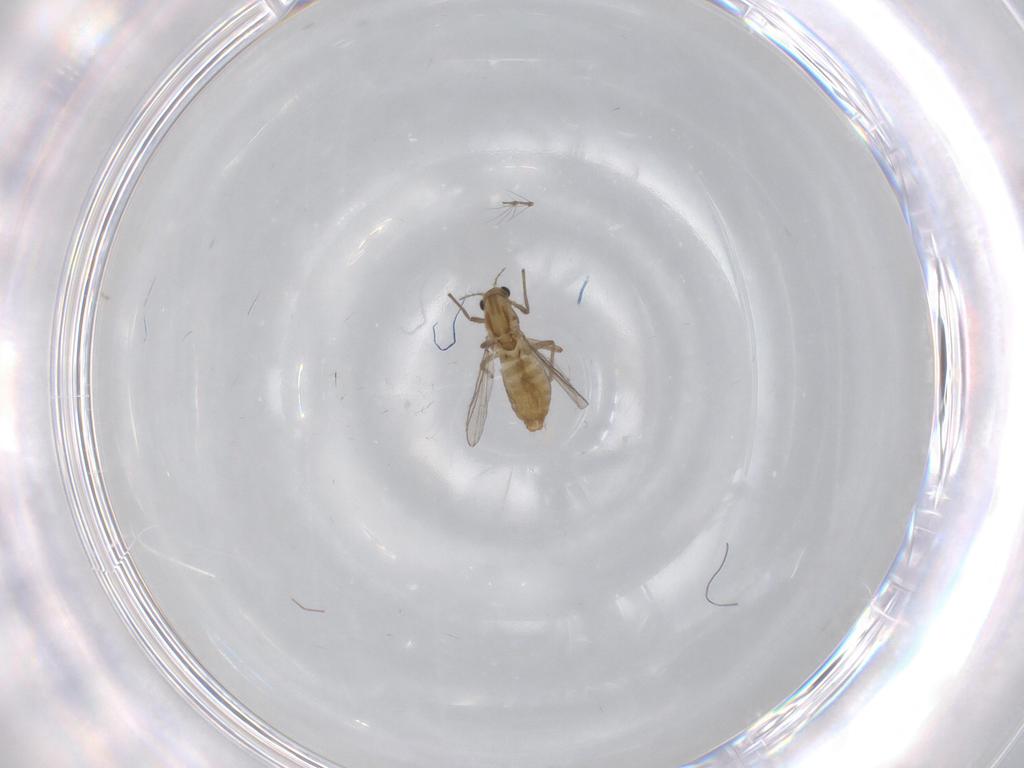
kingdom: Animalia
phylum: Arthropoda
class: Insecta
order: Diptera
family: Chironomidae
